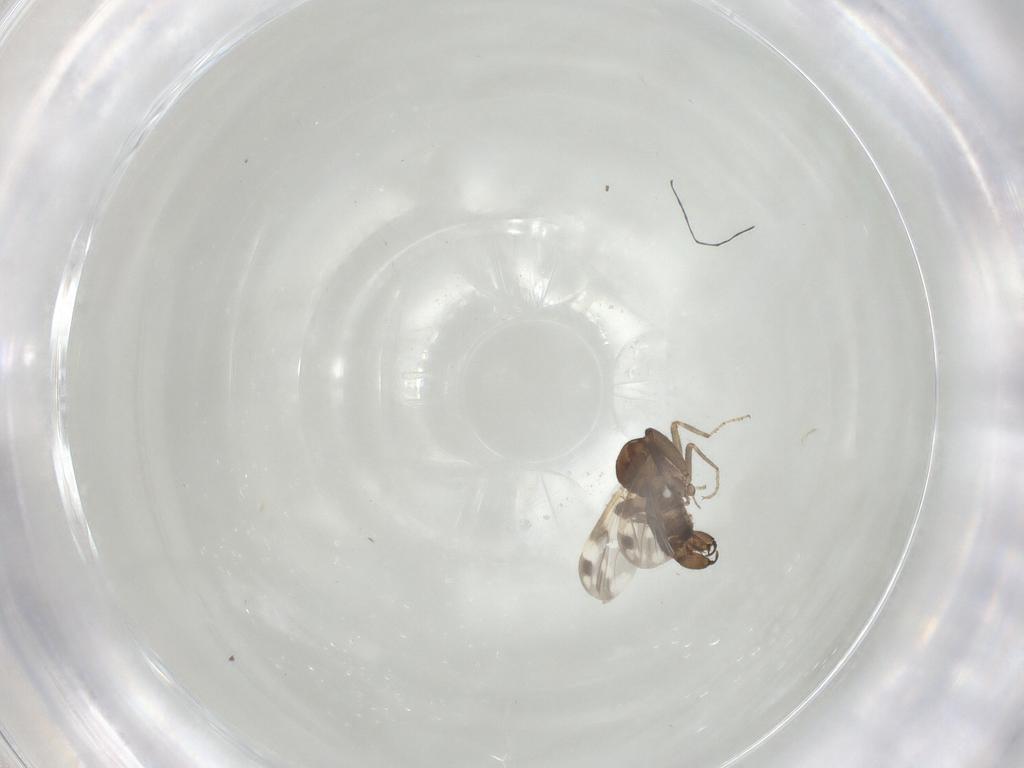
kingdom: Animalia
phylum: Arthropoda
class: Insecta
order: Diptera
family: Ceratopogonidae
